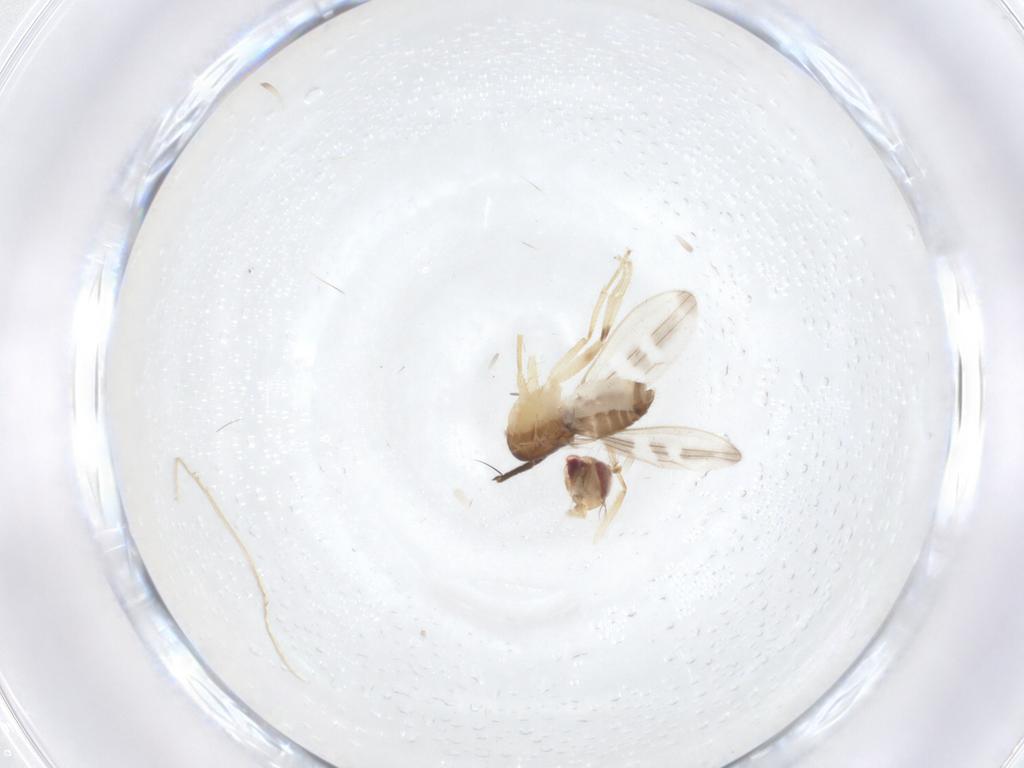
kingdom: Animalia
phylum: Arthropoda
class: Insecta
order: Diptera
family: Periscelididae
